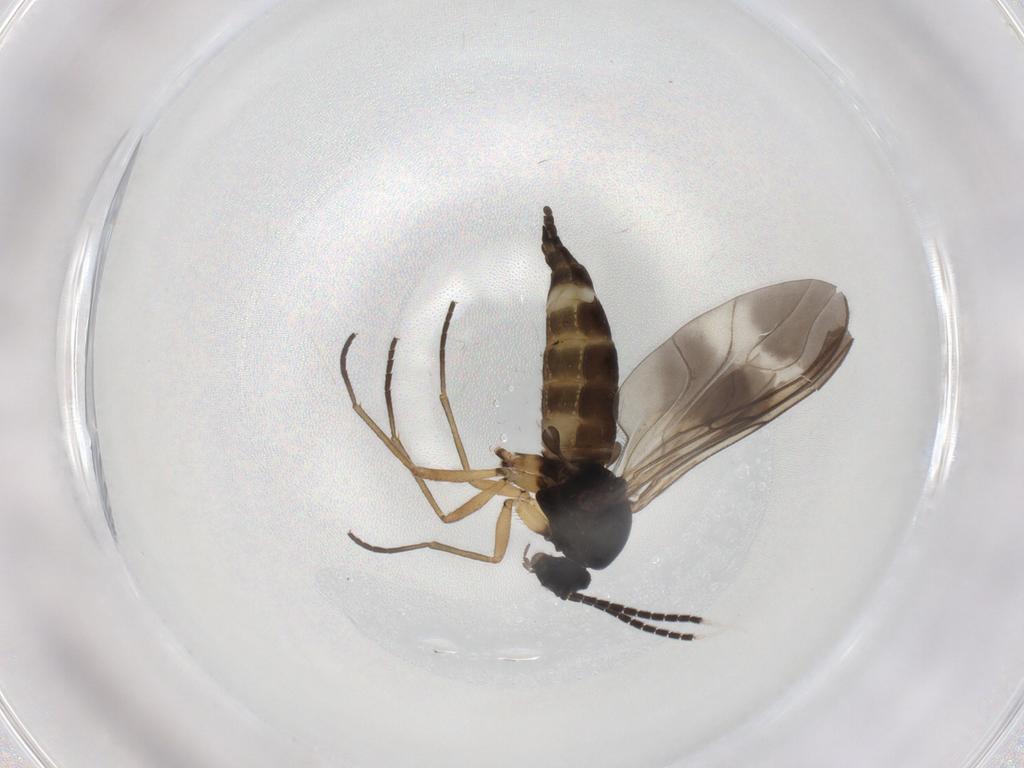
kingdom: Animalia
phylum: Arthropoda
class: Insecta
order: Diptera
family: Sciaridae
